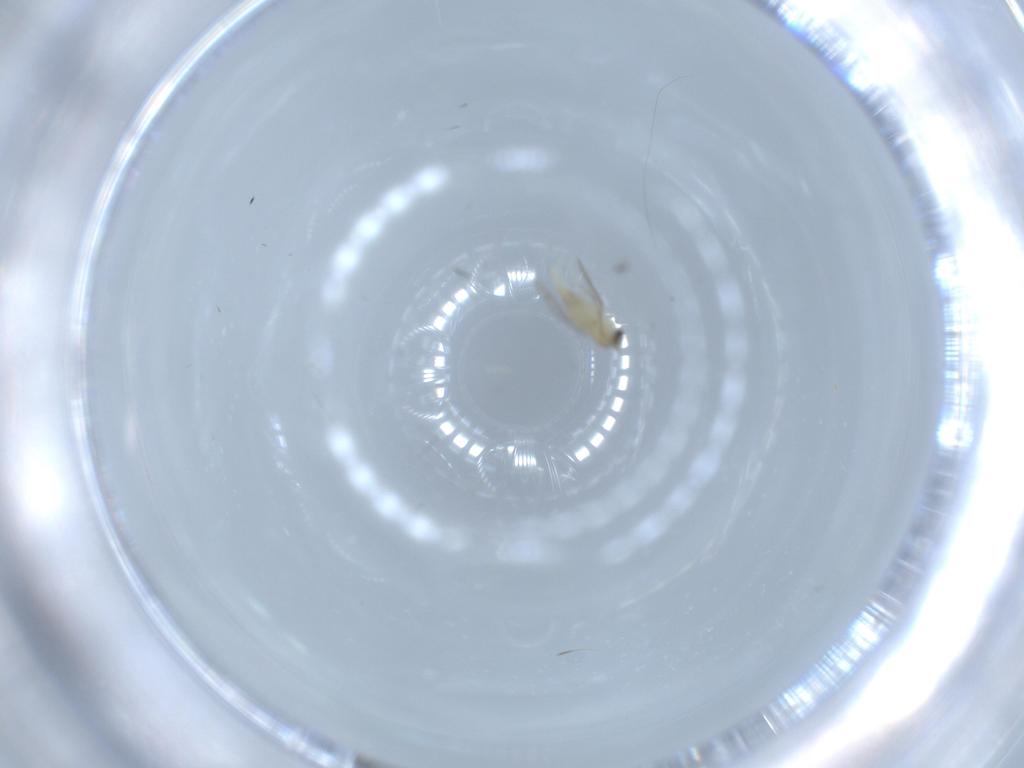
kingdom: Animalia
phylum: Arthropoda
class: Insecta
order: Diptera
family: Cecidomyiidae
